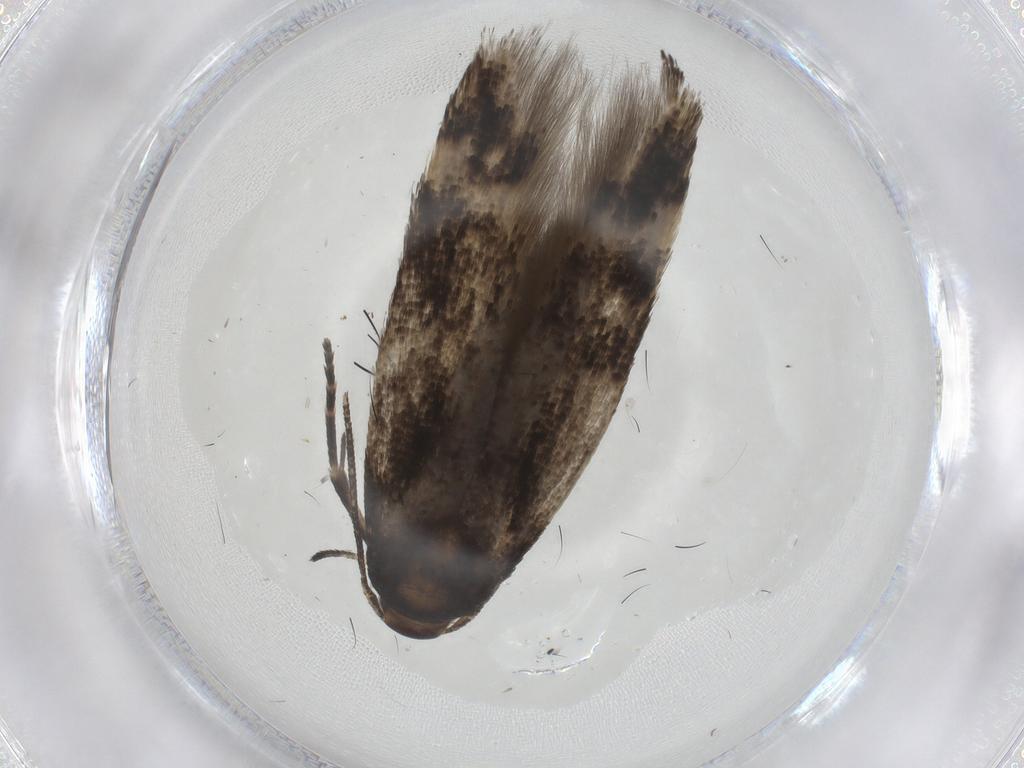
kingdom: Animalia
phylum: Arthropoda
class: Insecta
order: Lepidoptera
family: Momphidae
